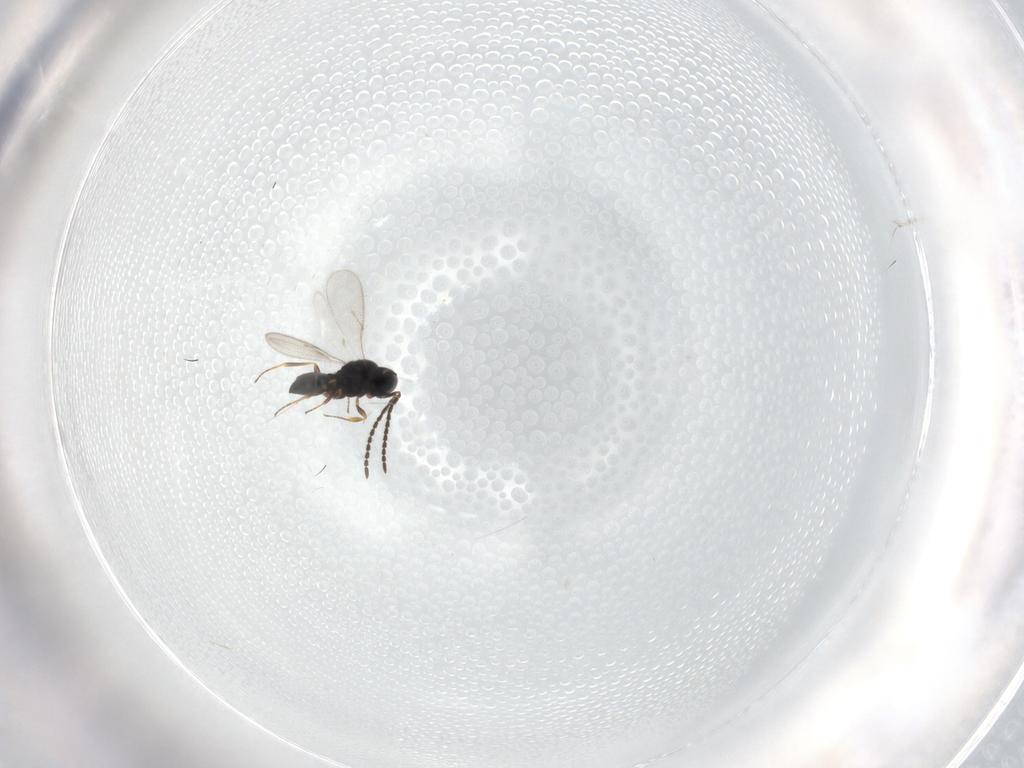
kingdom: Animalia
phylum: Arthropoda
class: Insecta
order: Hymenoptera
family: Scelionidae
